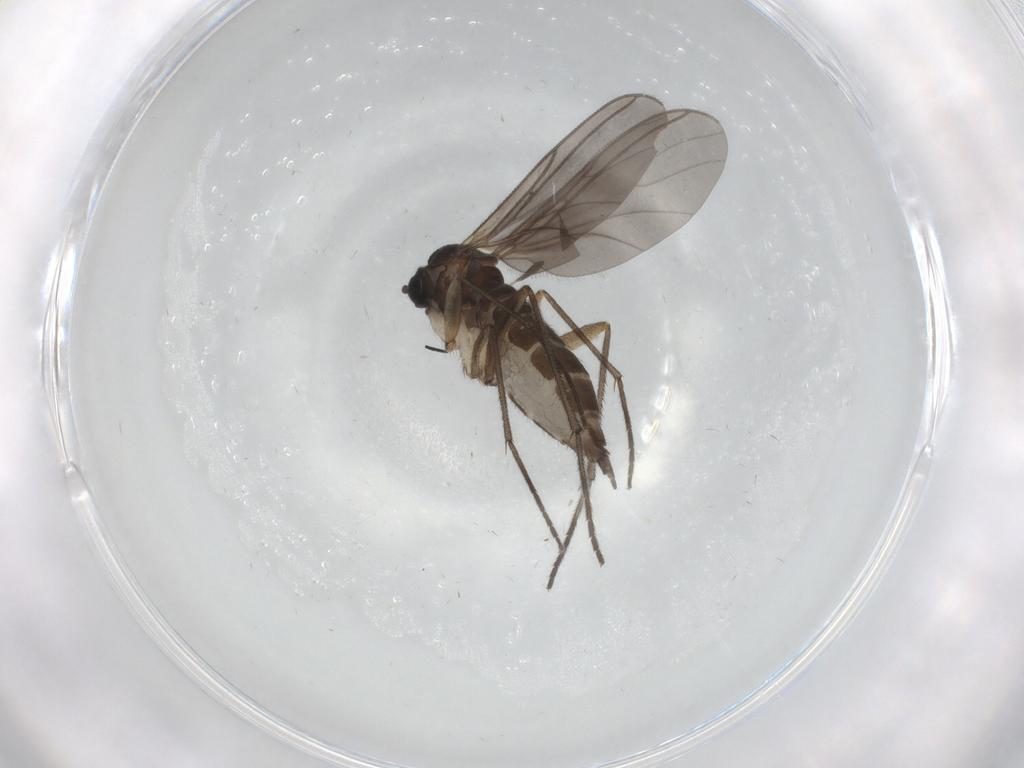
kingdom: Animalia
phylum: Arthropoda
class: Insecta
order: Diptera
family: Sciaridae
